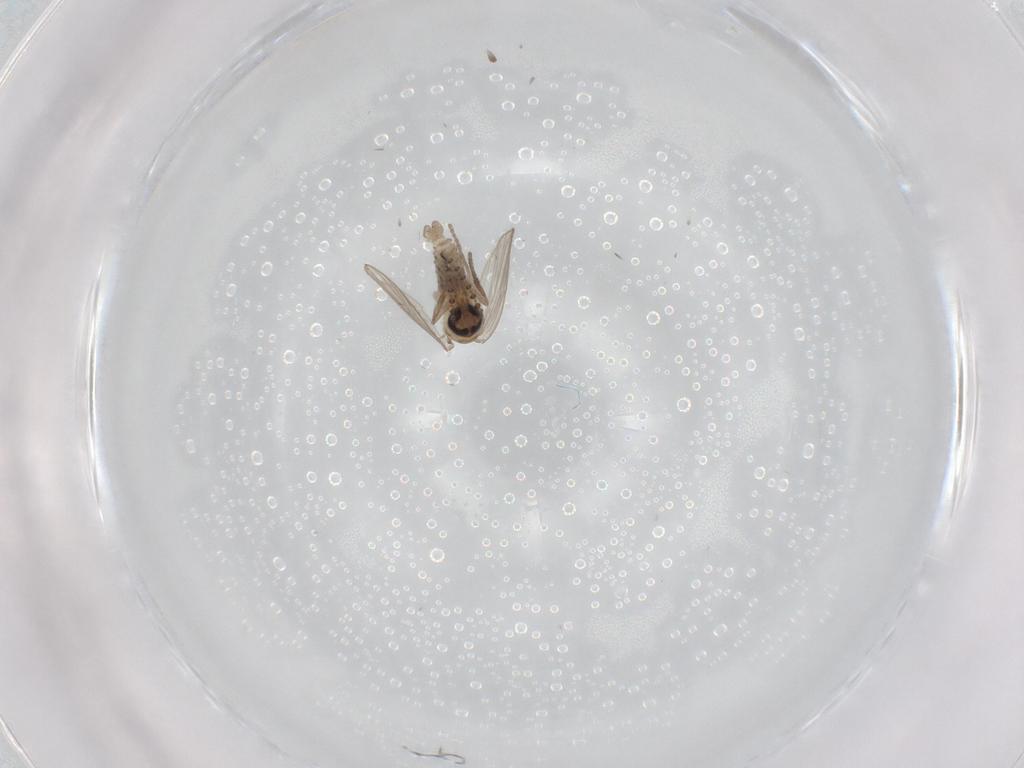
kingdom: Animalia
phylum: Arthropoda
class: Insecta
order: Diptera
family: Psychodidae
